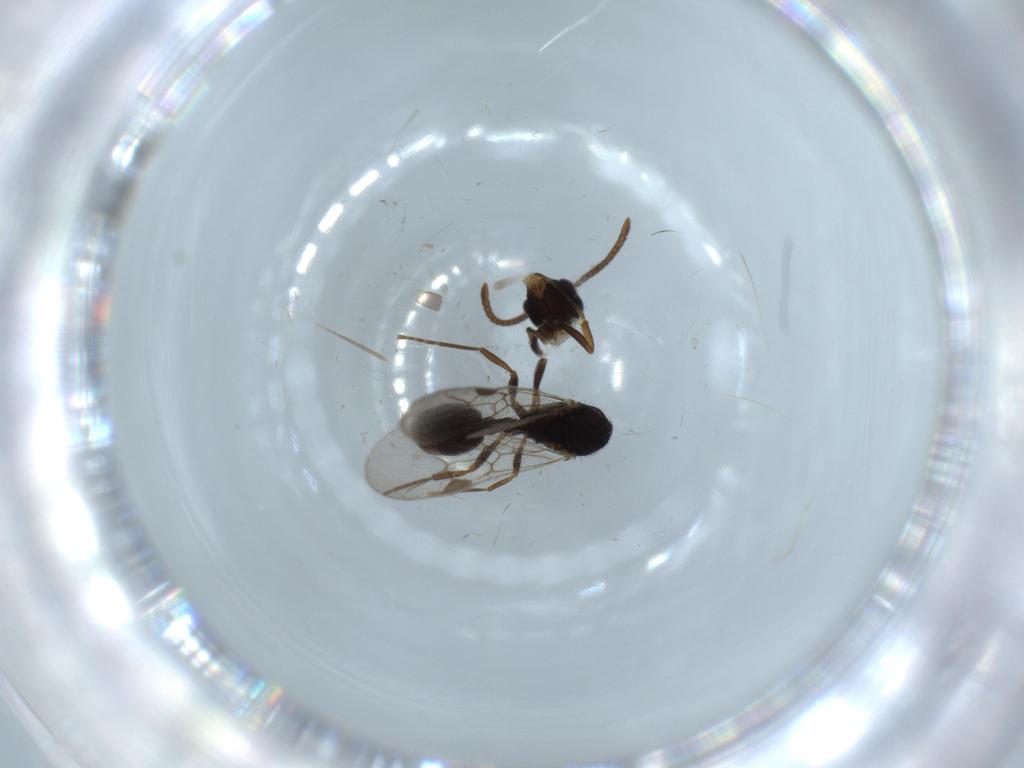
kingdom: Animalia
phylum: Arthropoda
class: Insecta
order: Hymenoptera
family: Formicidae
